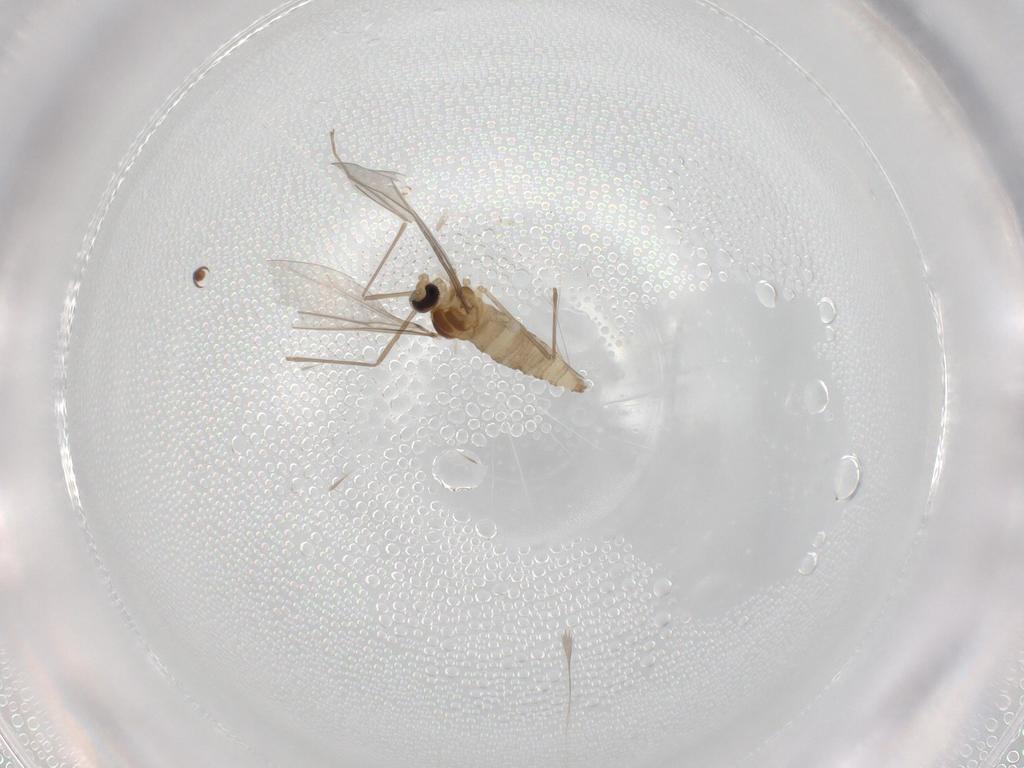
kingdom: Animalia
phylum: Arthropoda
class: Insecta
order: Diptera
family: Cecidomyiidae
